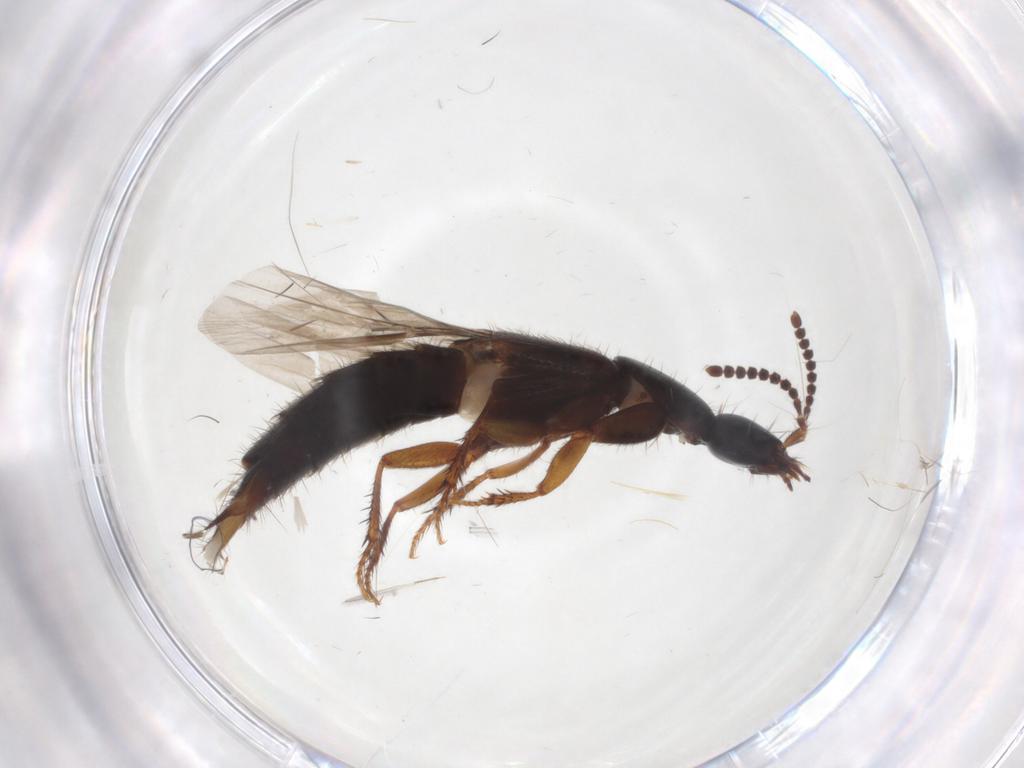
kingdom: Animalia
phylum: Arthropoda
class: Insecta
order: Coleoptera
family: Staphylinidae
